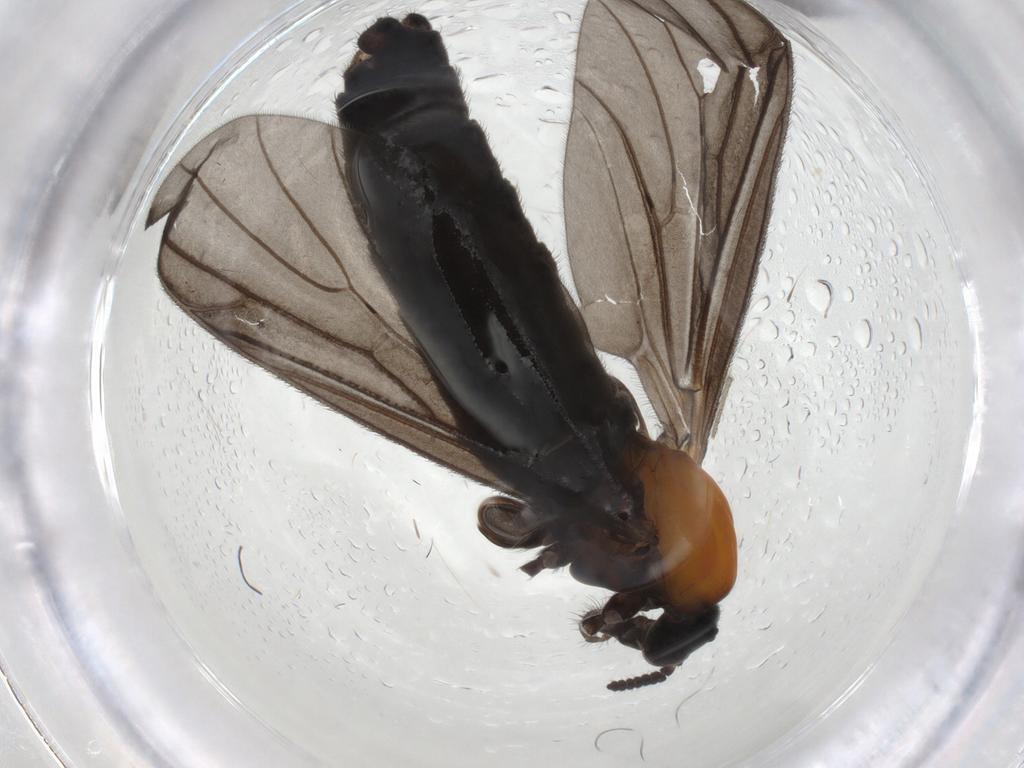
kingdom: Animalia
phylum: Arthropoda
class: Insecta
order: Diptera
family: Bibionidae
